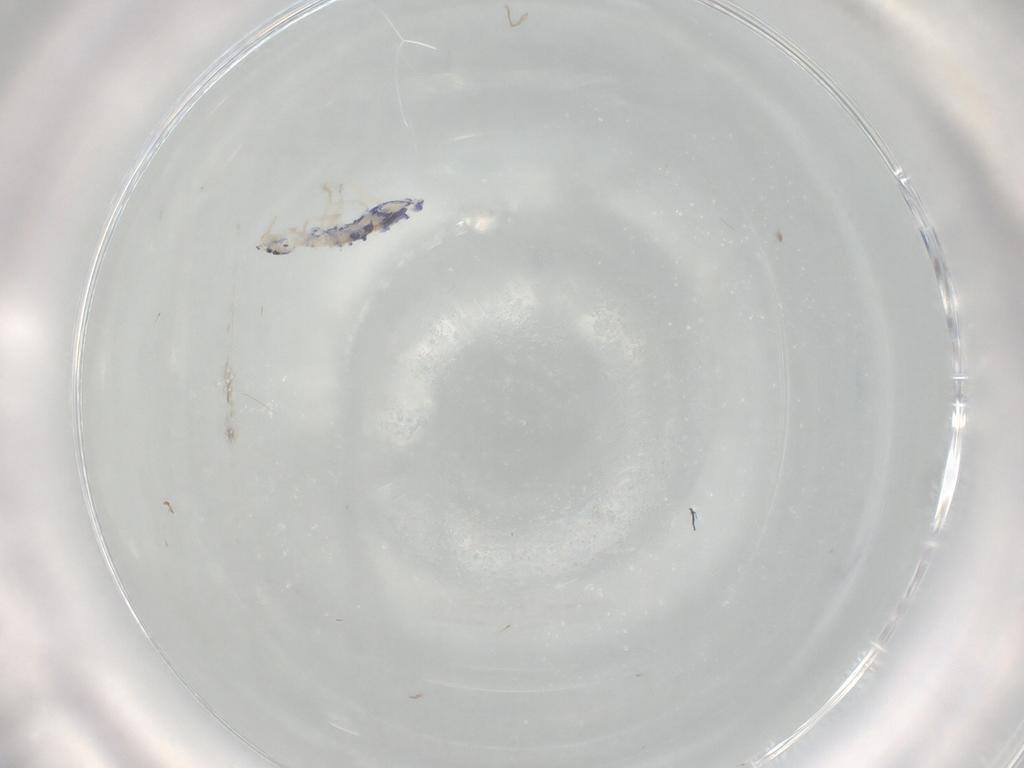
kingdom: Animalia
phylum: Arthropoda
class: Collembola
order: Entomobryomorpha
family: Entomobryidae
